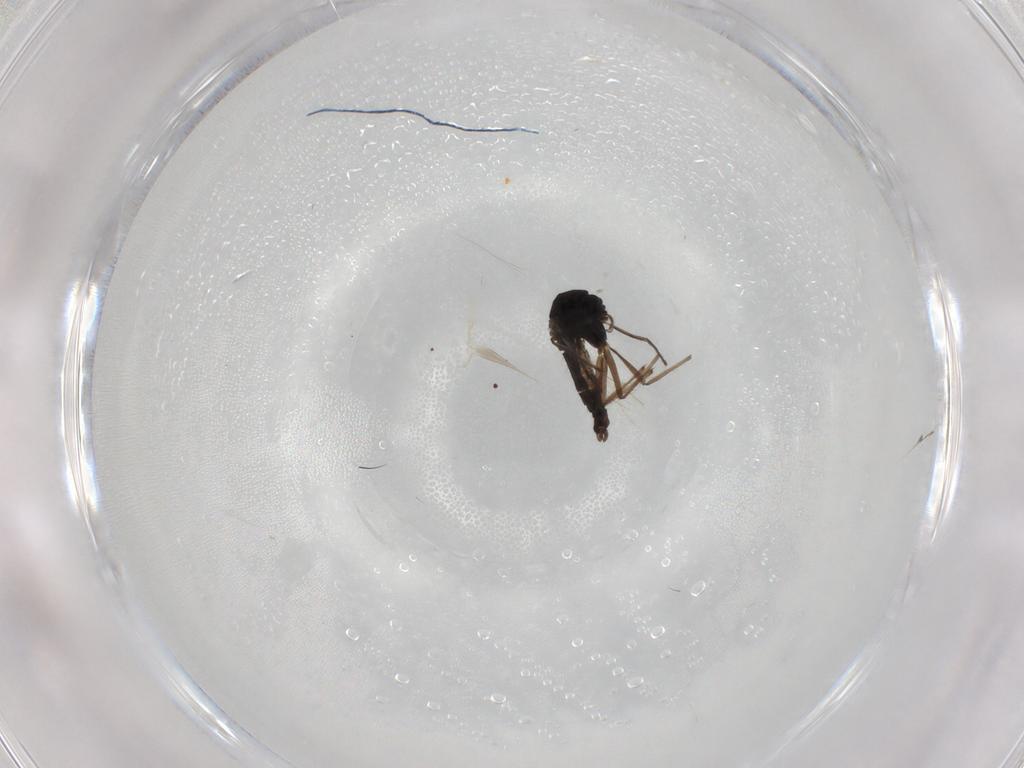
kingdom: Animalia
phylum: Arthropoda
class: Insecta
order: Diptera
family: Chironomidae
